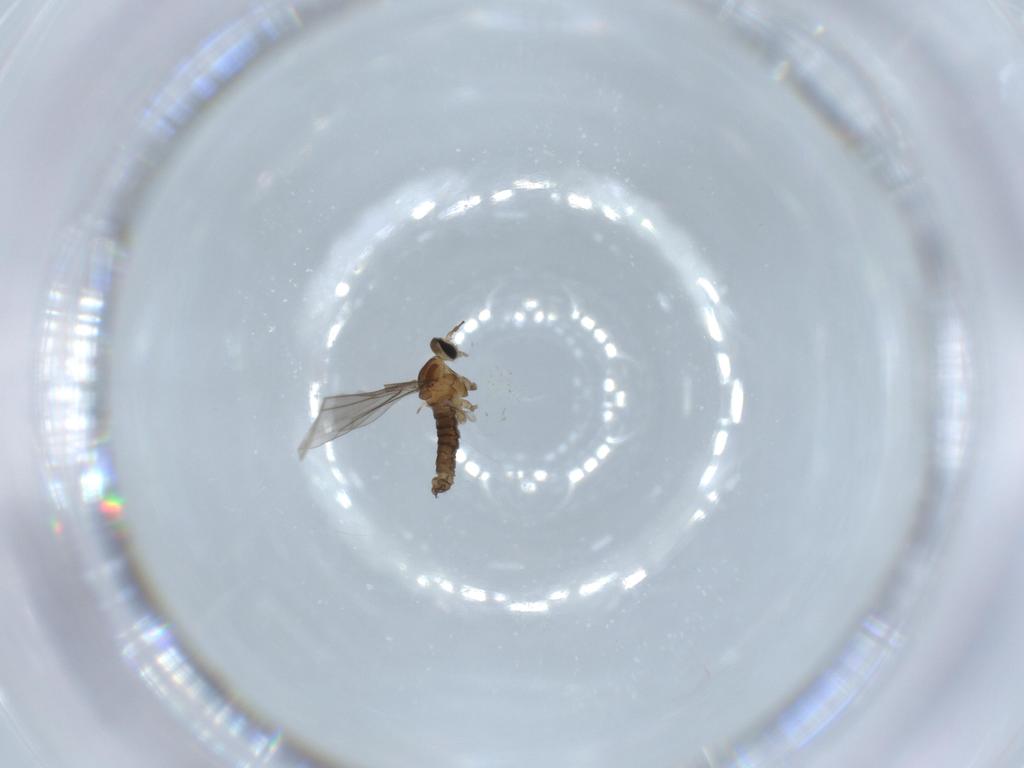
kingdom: Animalia
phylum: Arthropoda
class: Insecta
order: Diptera
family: Cecidomyiidae
